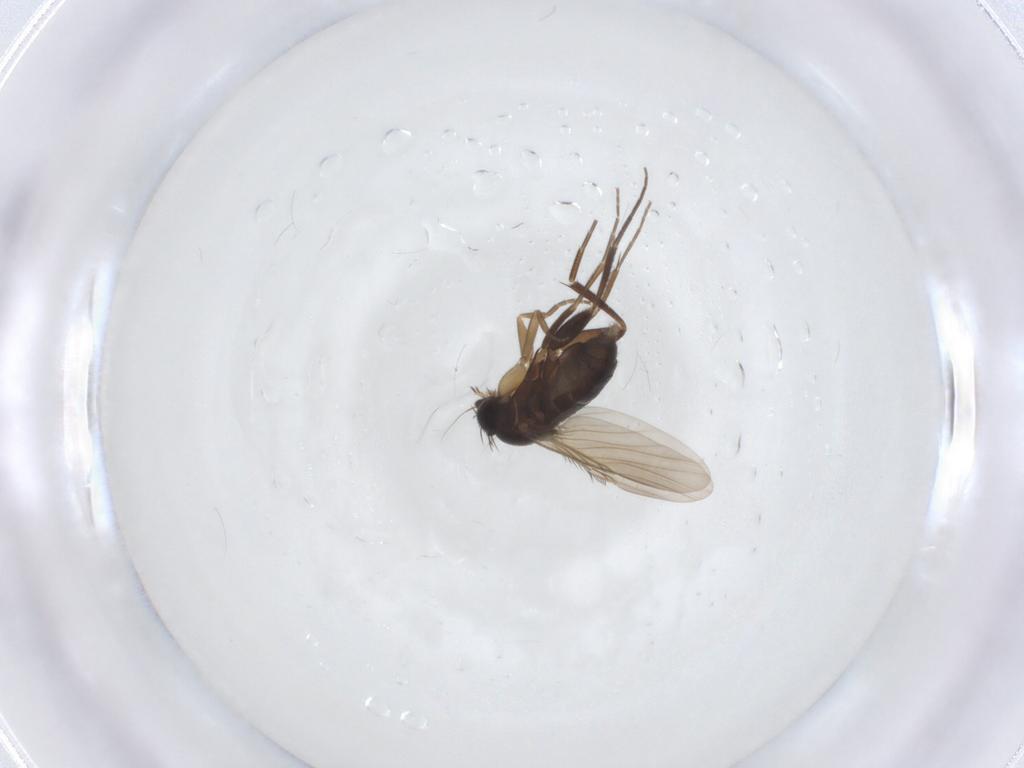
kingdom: Animalia
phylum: Arthropoda
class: Insecta
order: Diptera
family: Phoridae
